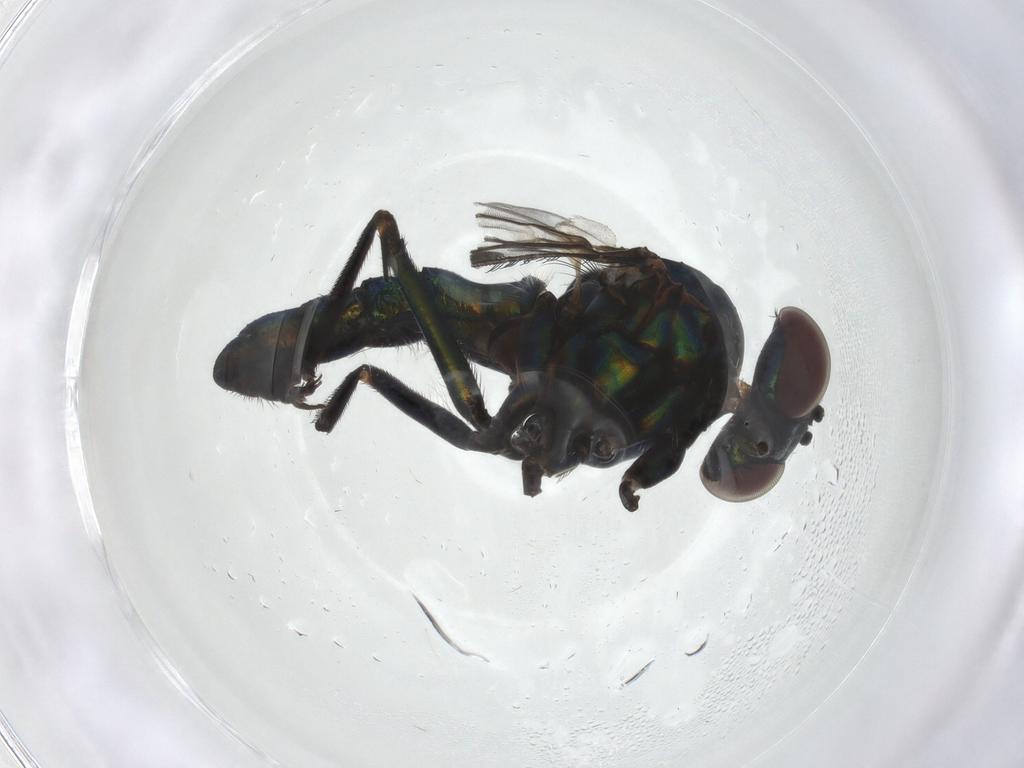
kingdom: Animalia
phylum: Arthropoda
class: Insecta
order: Diptera
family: Dolichopodidae
